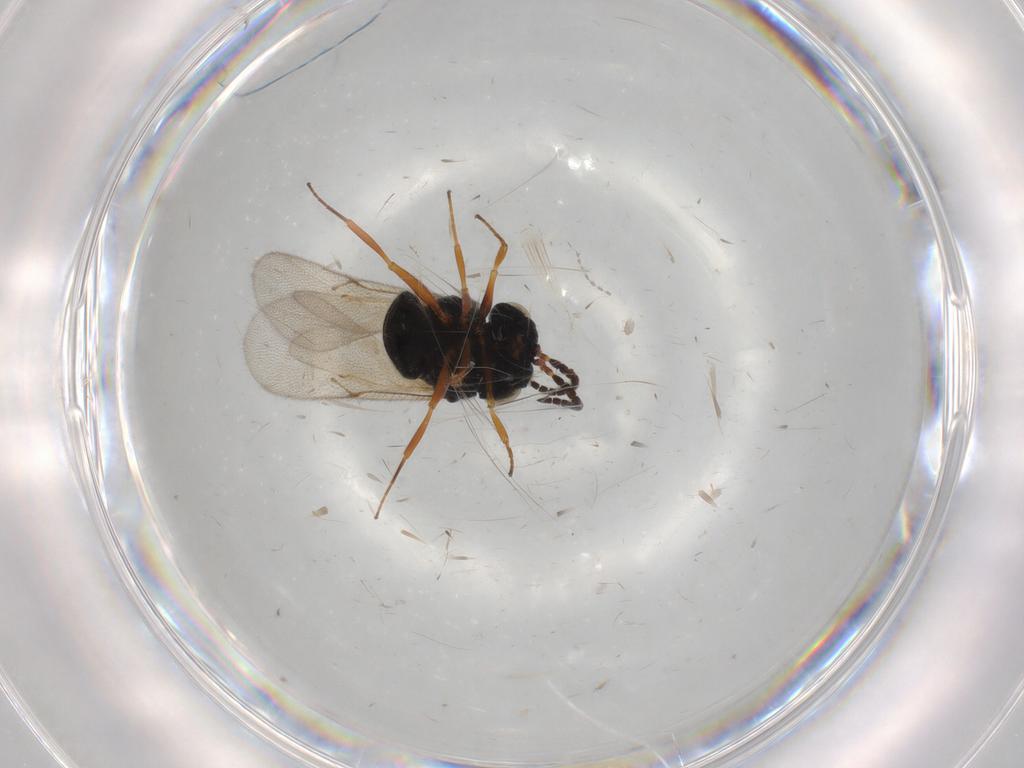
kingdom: Animalia
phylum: Arthropoda
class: Insecta
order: Hymenoptera
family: Scelionidae
